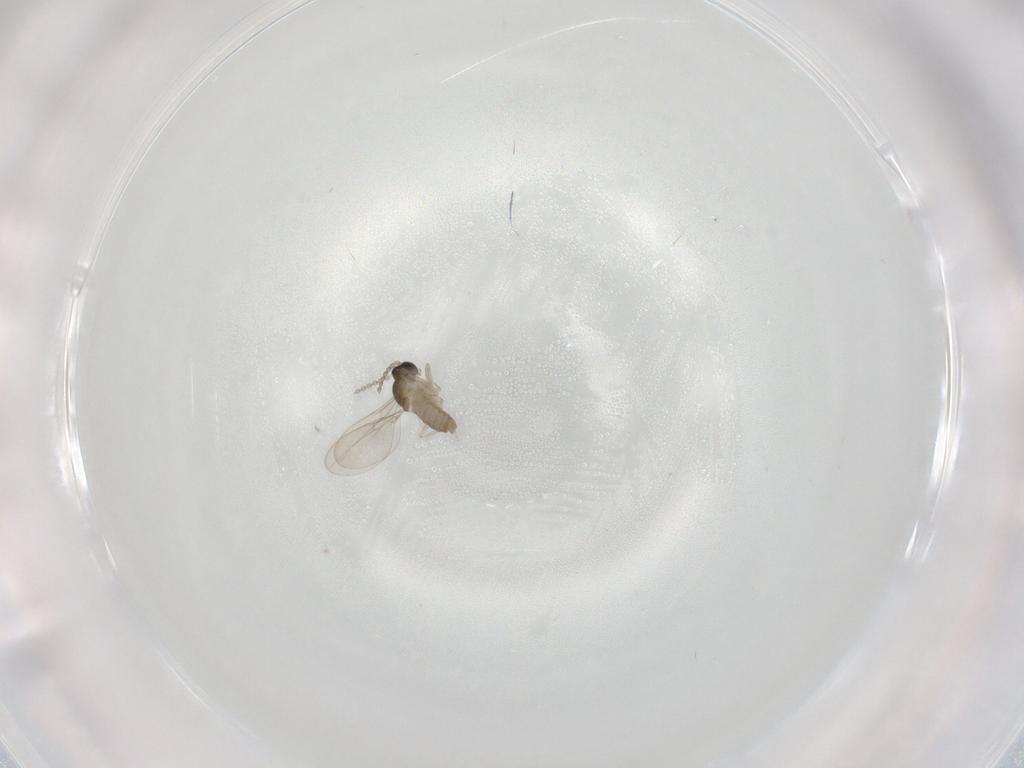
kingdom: Animalia
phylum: Arthropoda
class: Insecta
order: Diptera
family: Cecidomyiidae
